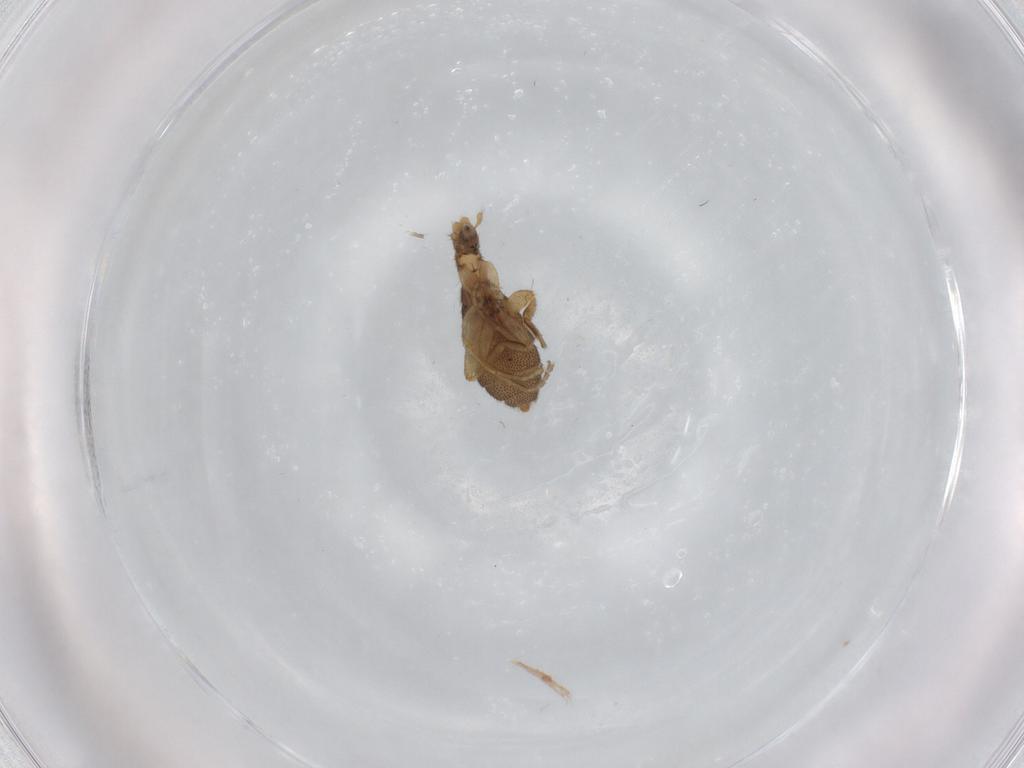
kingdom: Animalia
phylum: Arthropoda
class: Insecta
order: Diptera
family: Phoridae
